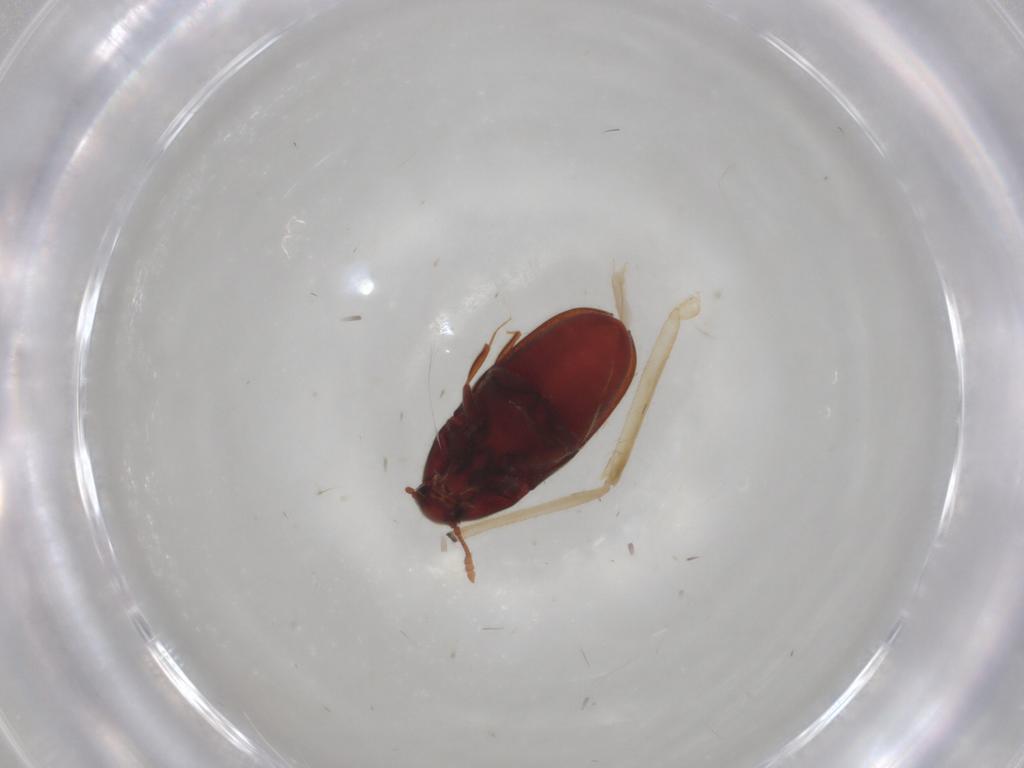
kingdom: Animalia
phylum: Arthropoda
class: Insecta
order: Coleoptera
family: Throscidae
